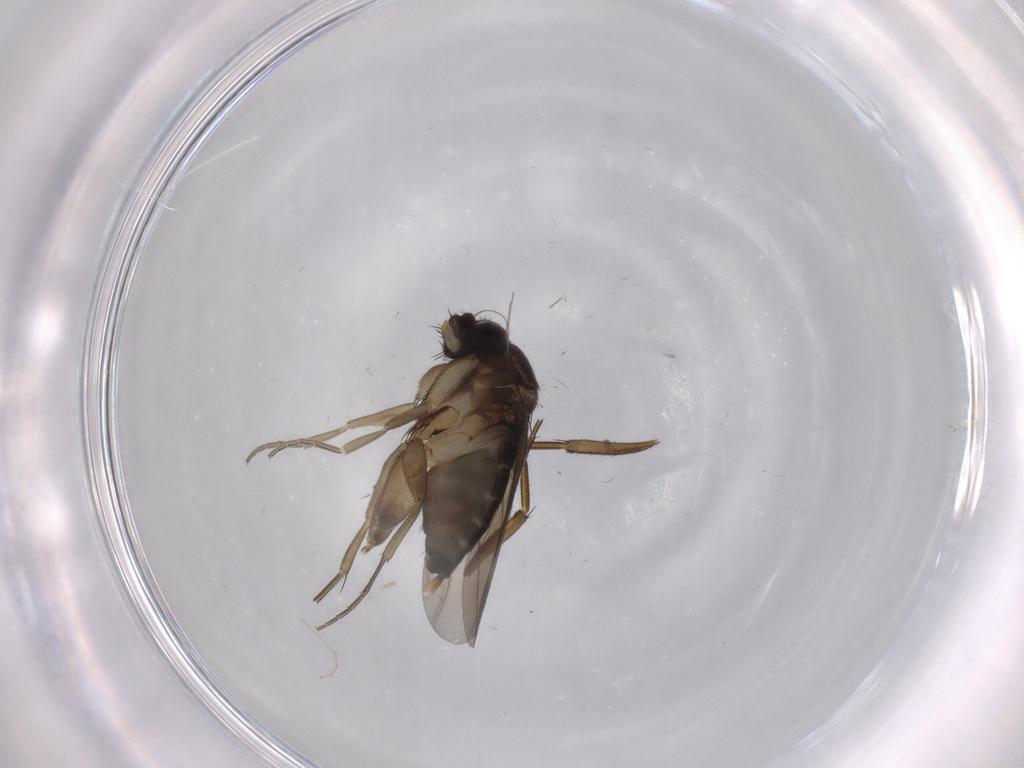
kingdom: Animalia
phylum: Arthropoda
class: Insecta
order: Diptera
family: Phoridae
